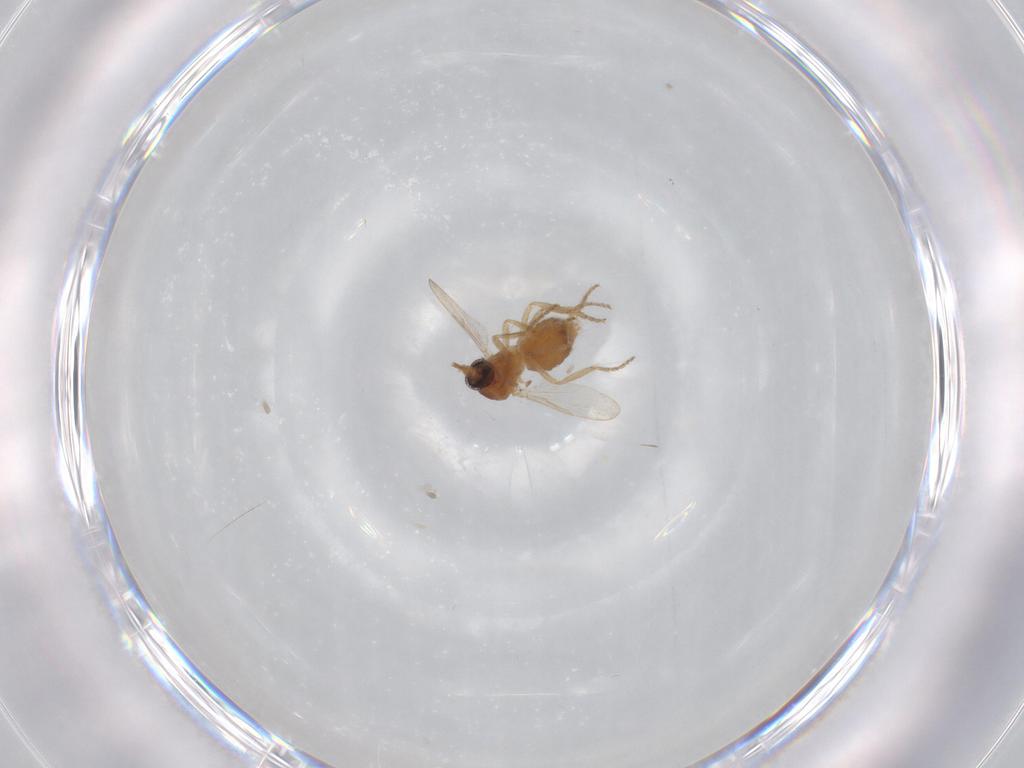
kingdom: Animalia
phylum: Arthropoda
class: Insecta
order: Diptera
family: Ceratopogonidae
